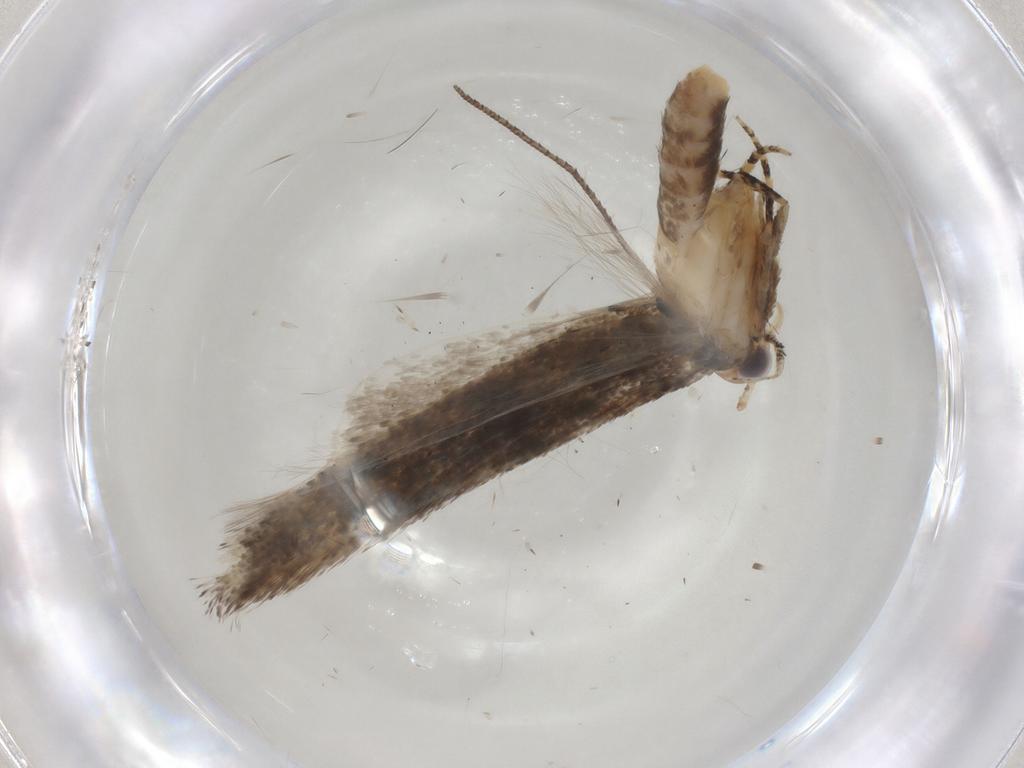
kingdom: Animalia
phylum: Arthropoda
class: Insecta
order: Lepidoptera
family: Gelechiidae
